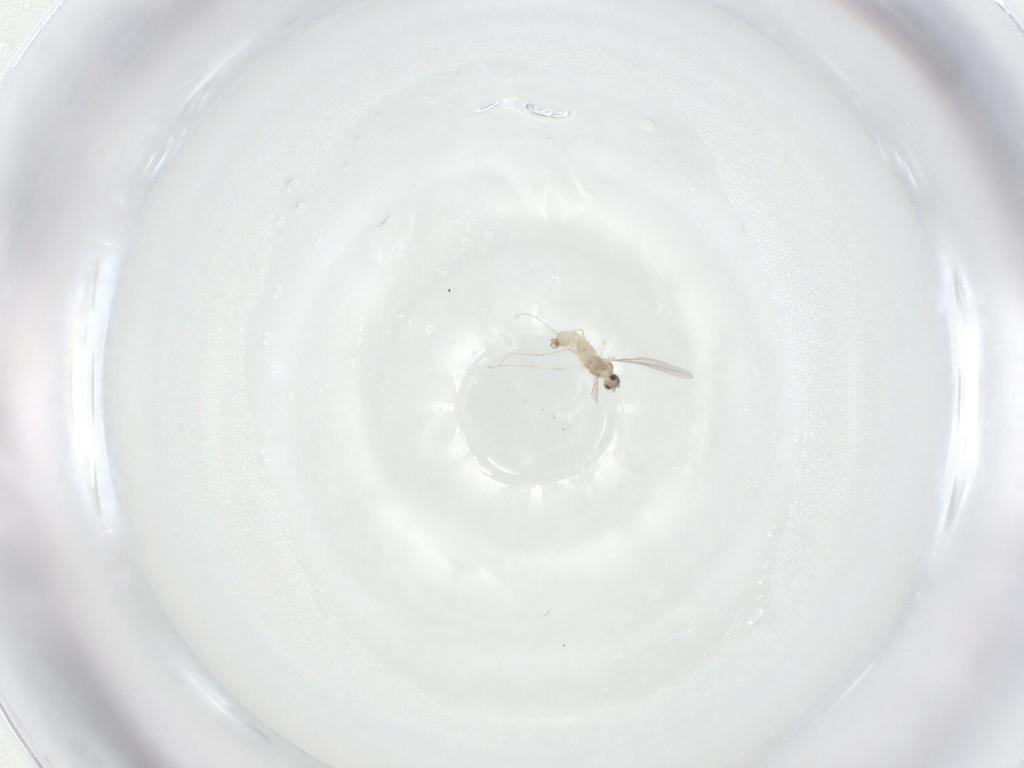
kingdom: Animalia
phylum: Arthropoda
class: Insecta
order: Diptera
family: Cecidomyiidae
